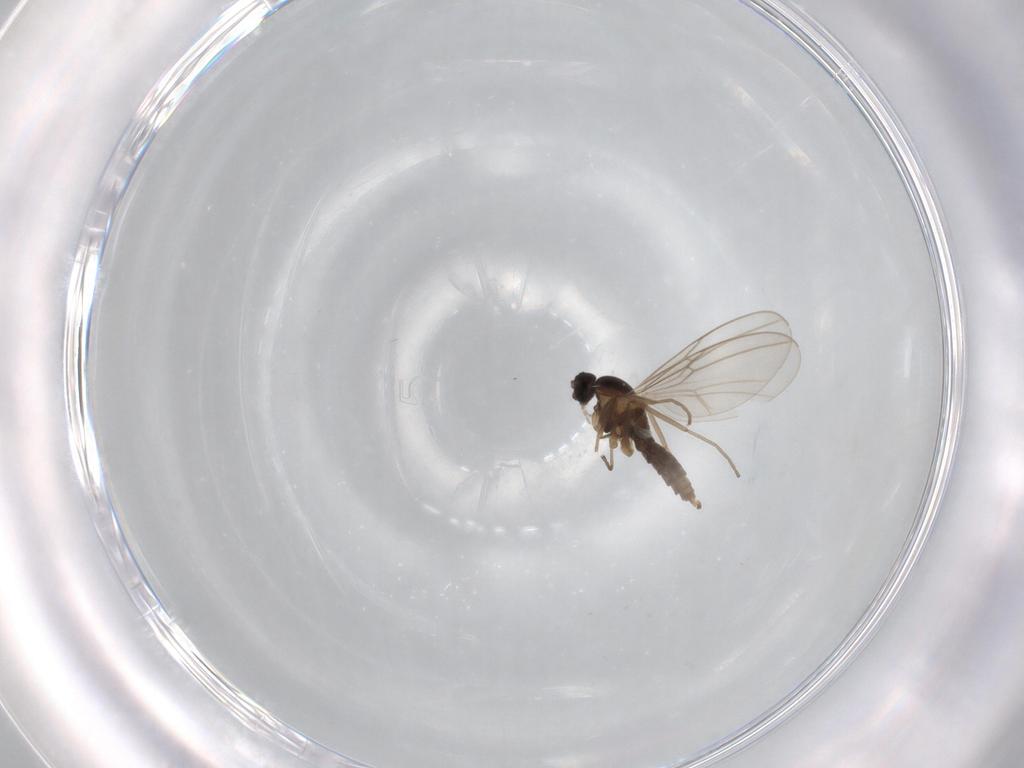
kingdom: Animalia
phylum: Arthropoda
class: Insecta
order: Diptera
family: Cecidomyiidae
